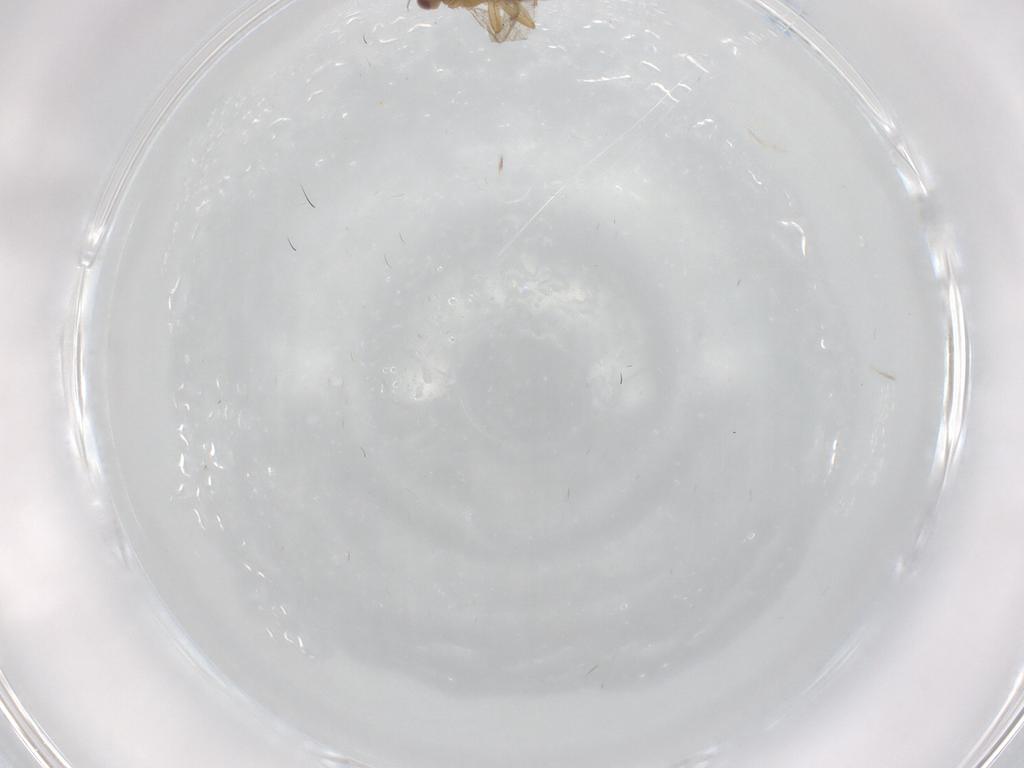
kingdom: Animalia
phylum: Arthropoda
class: Insecta
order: Diptera
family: Periscelididae
